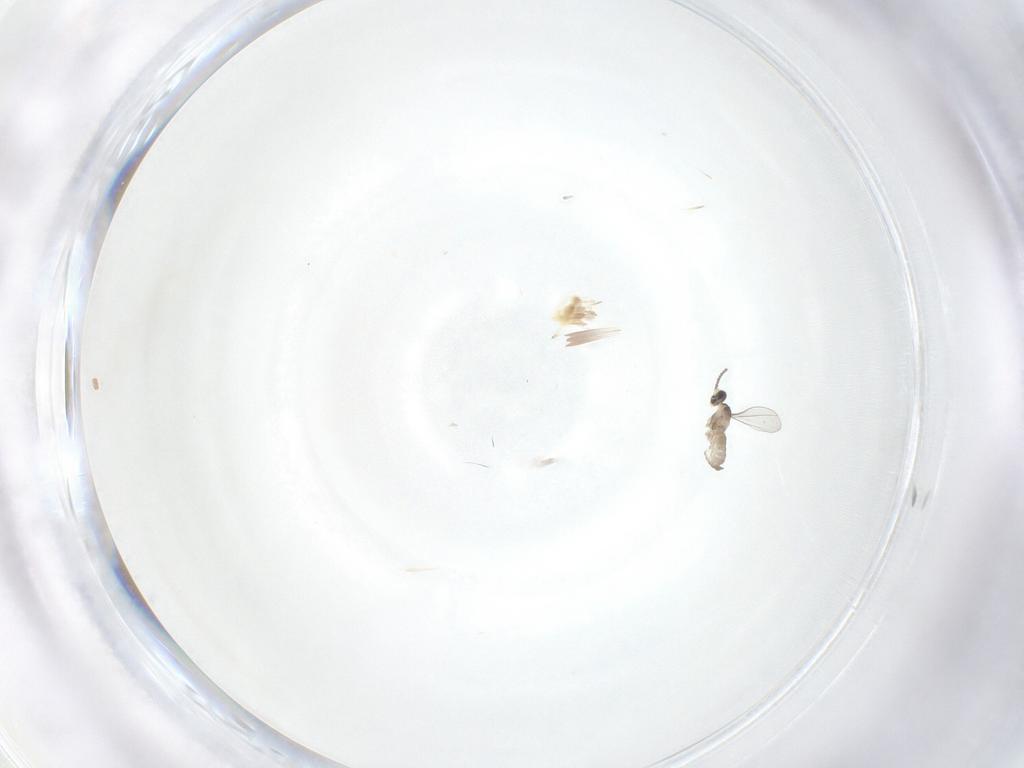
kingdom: Animalia
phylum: Arthropoda
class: Insecta
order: Diptera
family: Cecidomyiidae
